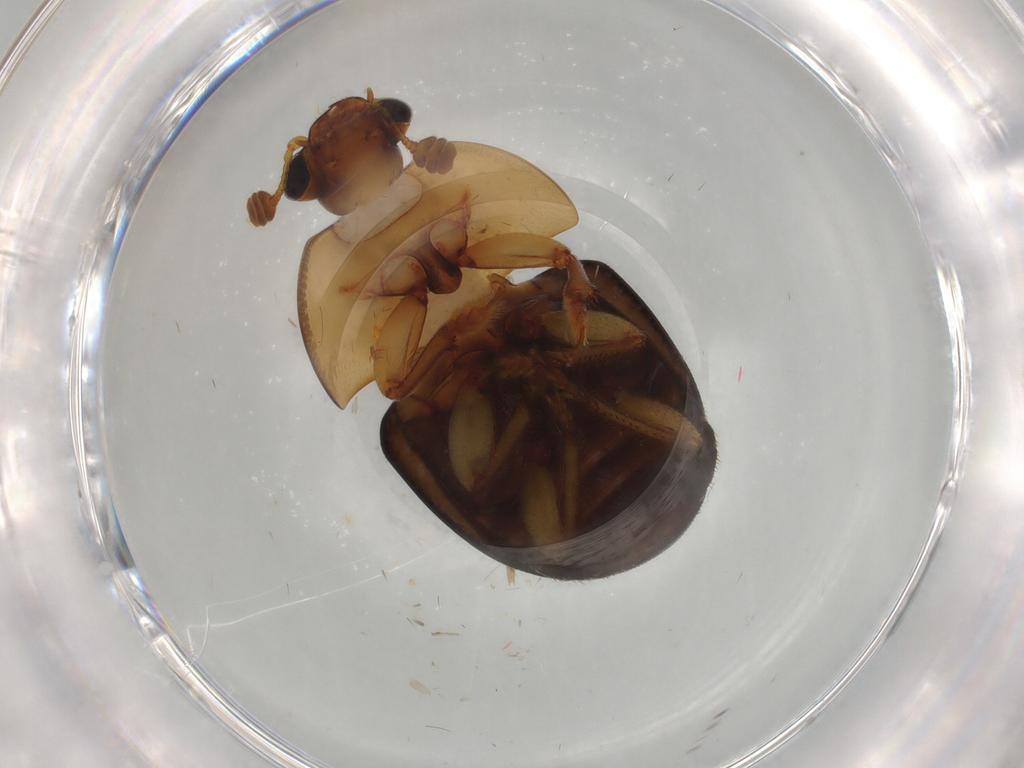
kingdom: Animalia
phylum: Arthropoda
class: Insecta
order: Coleoptera
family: Nitidulidae
